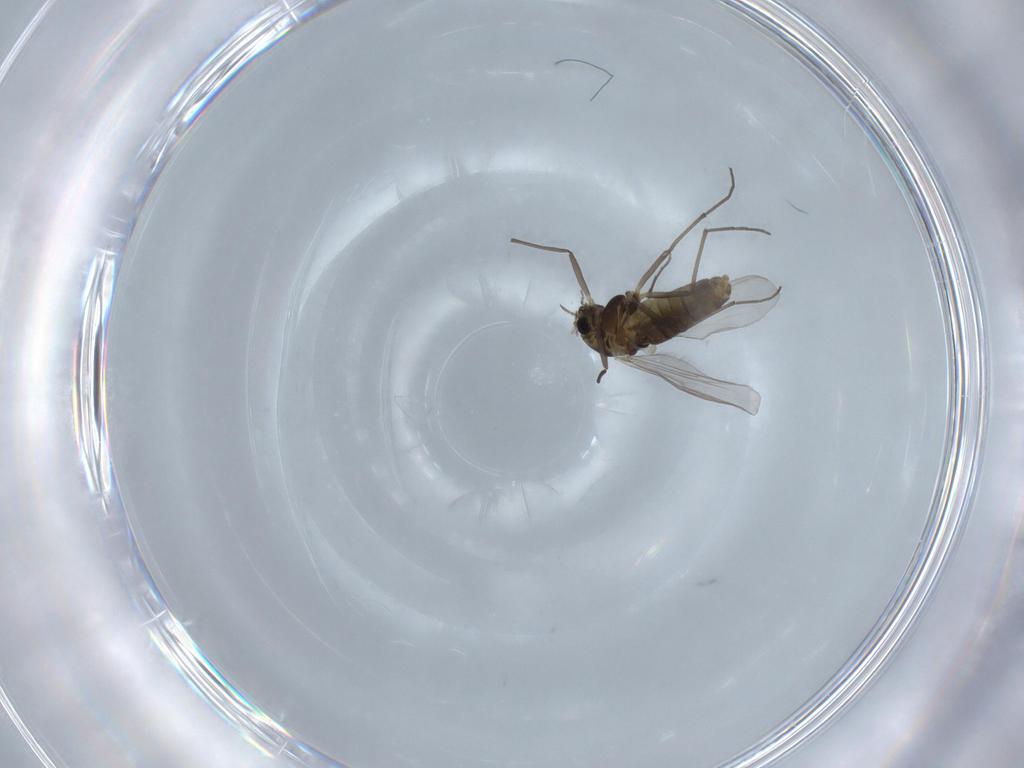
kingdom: Animalia
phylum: Arthropoda
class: Insecta
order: Diptera
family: Chironomidae
